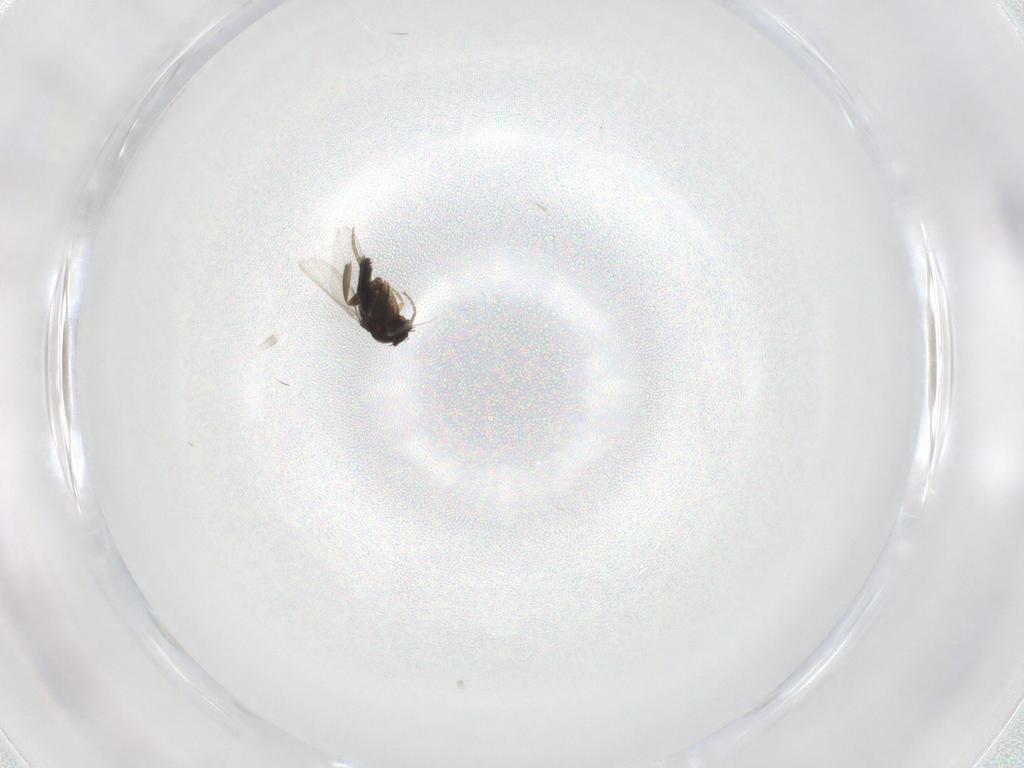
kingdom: Animalia
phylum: Arthropoda
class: Insecta
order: Diptera
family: Phoridae
